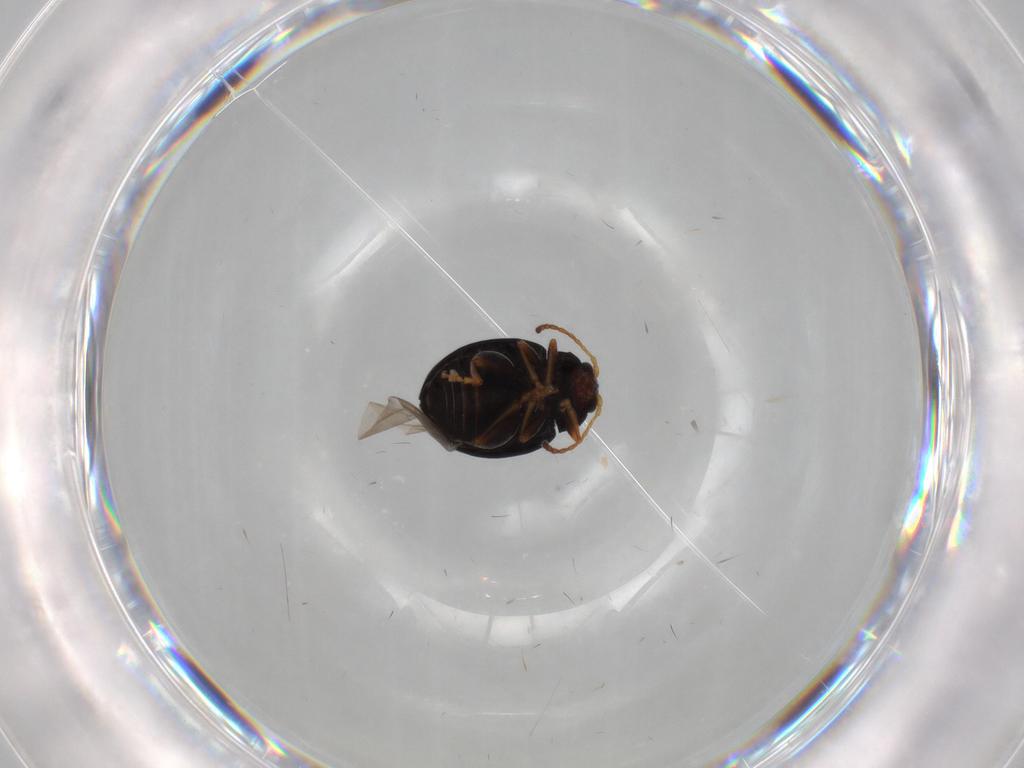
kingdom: Animalia
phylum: Arthropoda
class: Insecta
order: Coleoptera
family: Chrysomelidae
